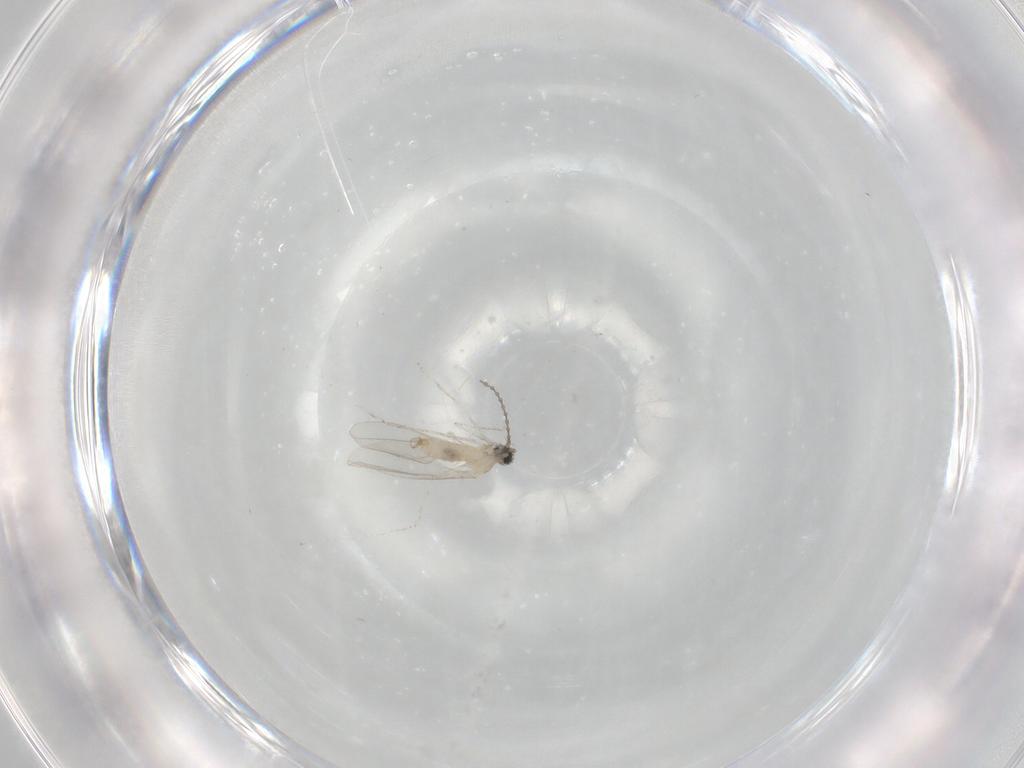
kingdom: Animalia
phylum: Arthropoda
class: Insecta
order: Diptera
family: Cecidomyiidae
